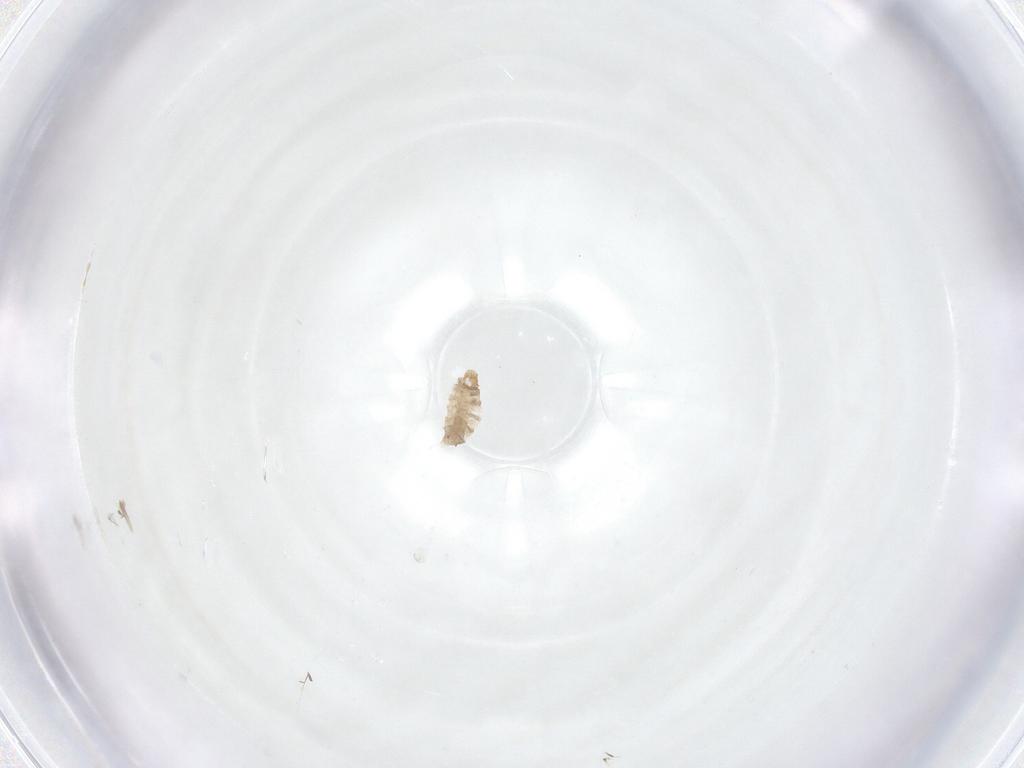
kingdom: Animalia
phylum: Arthropoda
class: Insecta
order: Diptera
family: Cecidomyiidae
